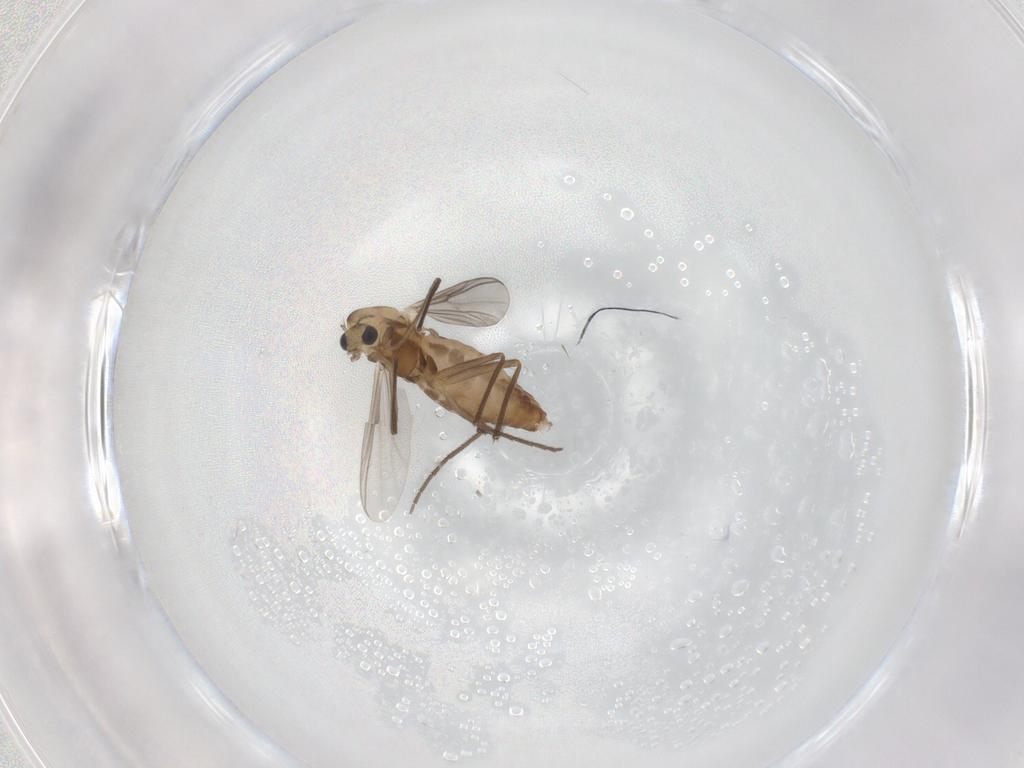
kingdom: Animalia
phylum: Arthropoda
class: Insecta
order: Diptera
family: Chironomidae
